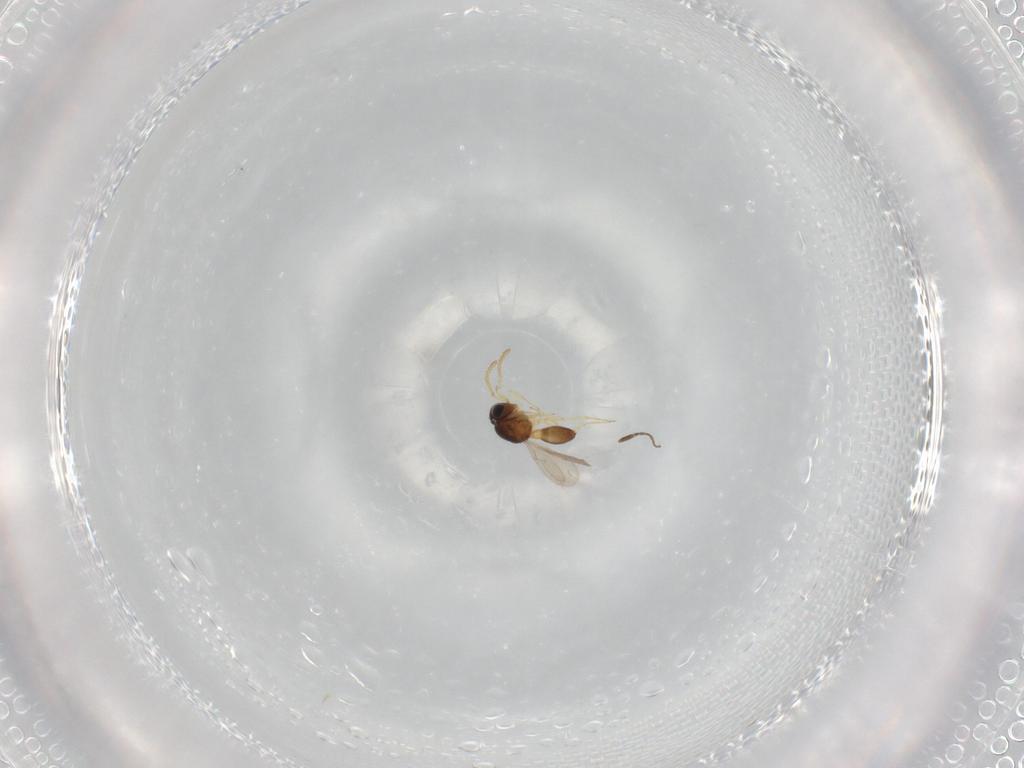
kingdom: Animalia
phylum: Arthropoda
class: Insecta
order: Hymenoptera
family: Scelionidae
